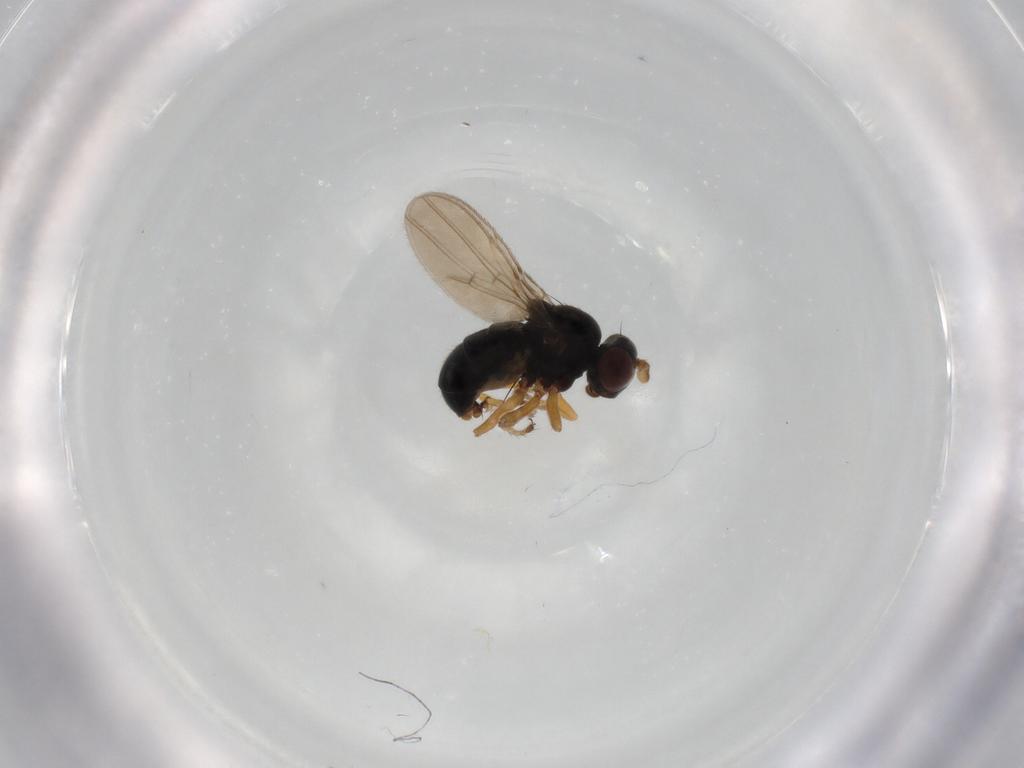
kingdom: Animalia
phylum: Arthropoda
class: Insecta
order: Diptera
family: Ephydridae
